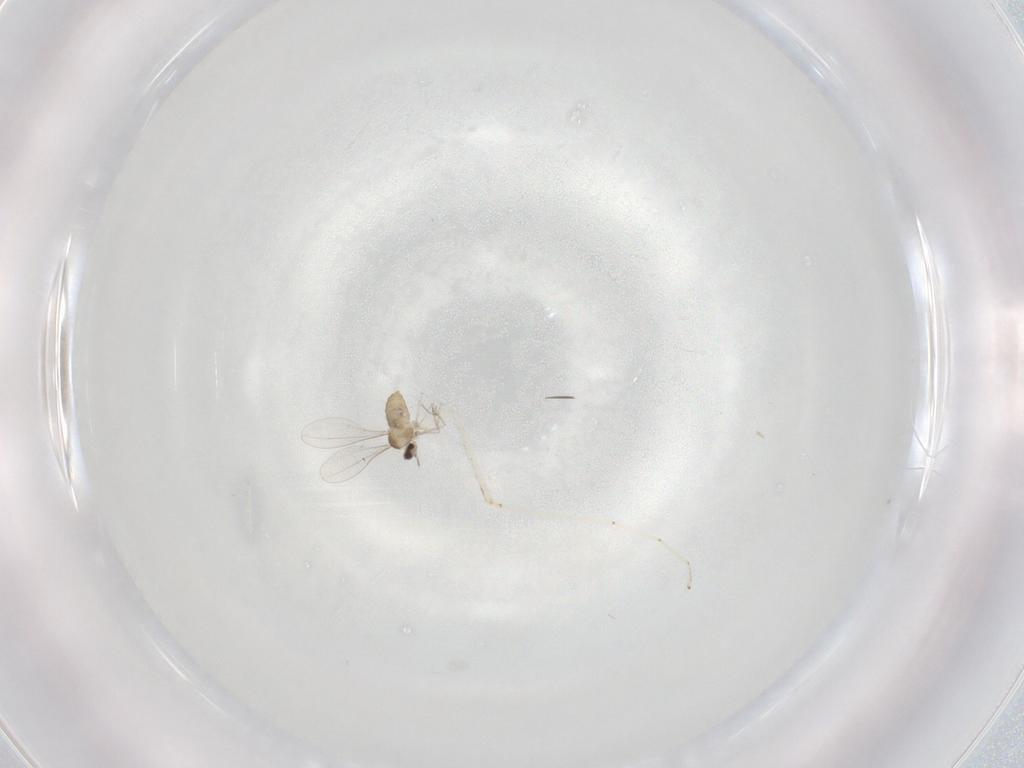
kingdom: Animalia
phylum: Arthropoda
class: Insecta
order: Diptera
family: Cecidomyiidae
